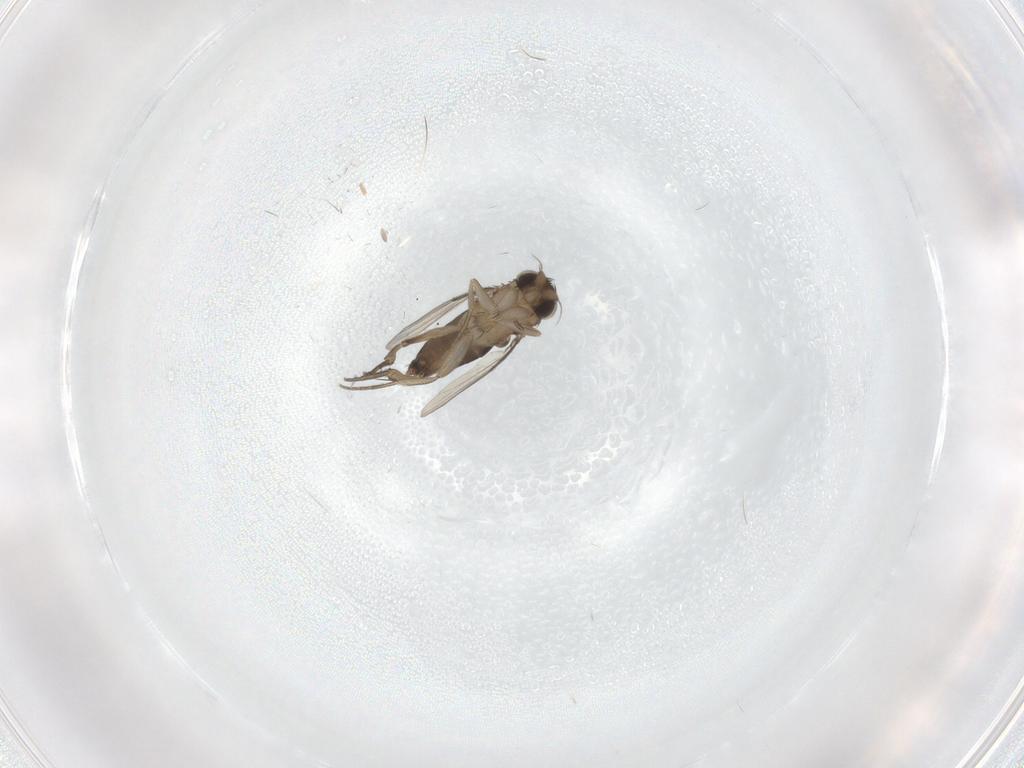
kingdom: Animalia
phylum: Arthropoda
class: Insecta
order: Diptera
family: Phoridae
